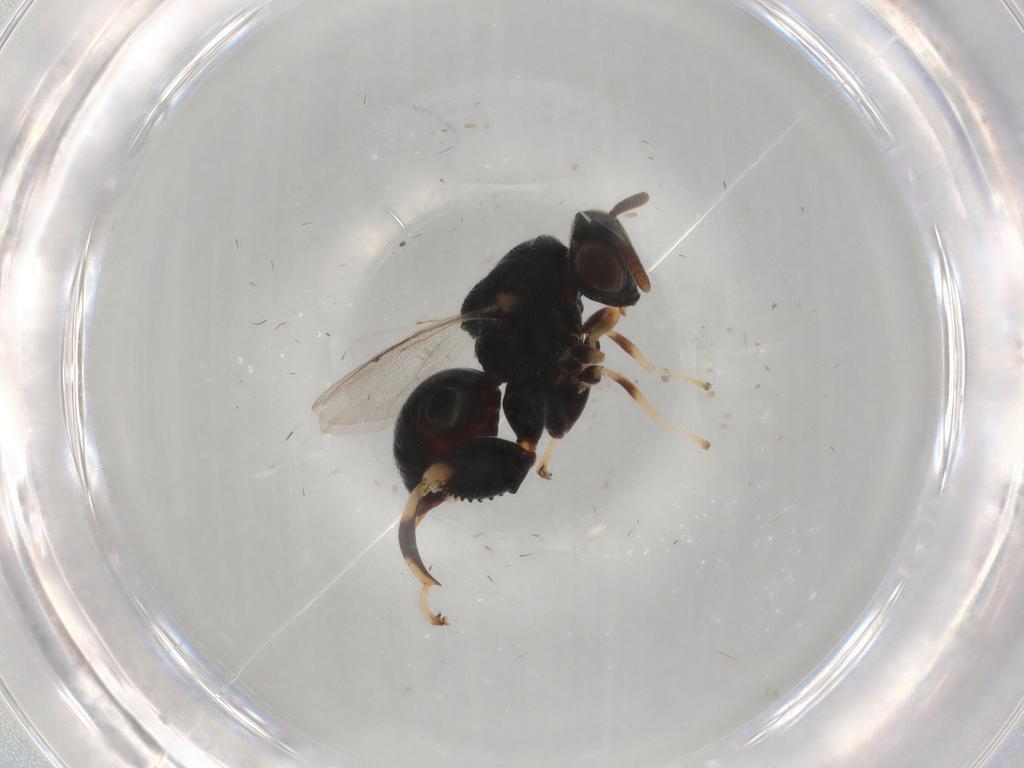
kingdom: Animalia
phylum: Arthropoda
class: Insecta
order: Hymenoptera
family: Chalcididae
